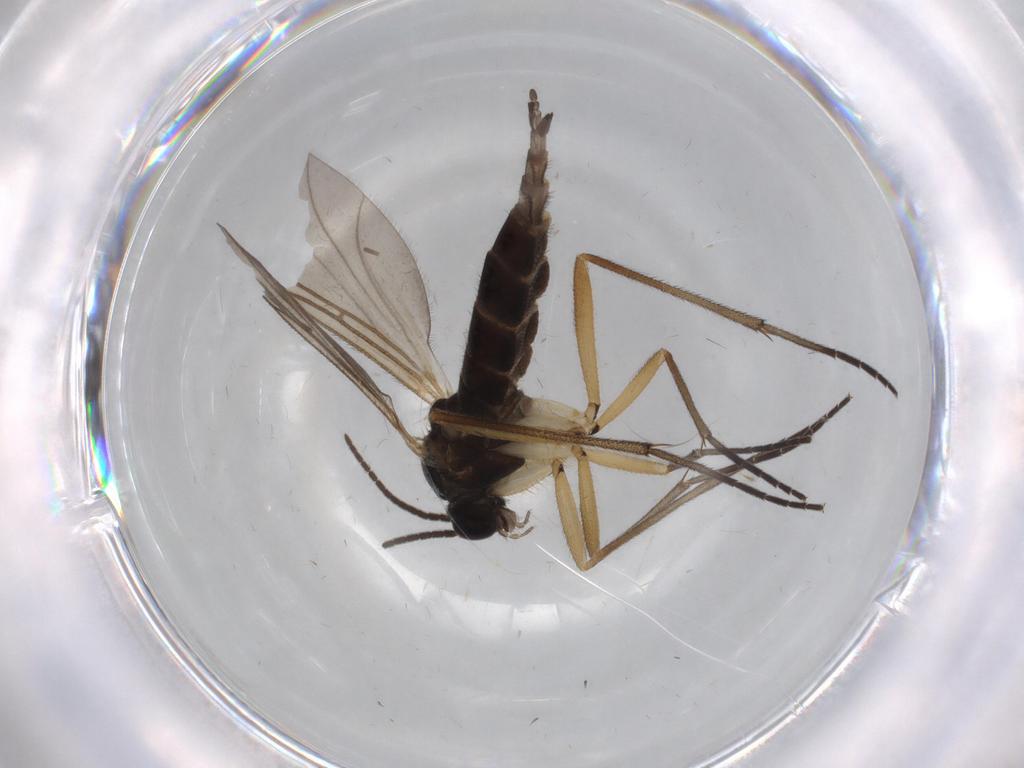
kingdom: Animalia
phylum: Arthropoda
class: Insecta
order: Diptera
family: Sciaridae
